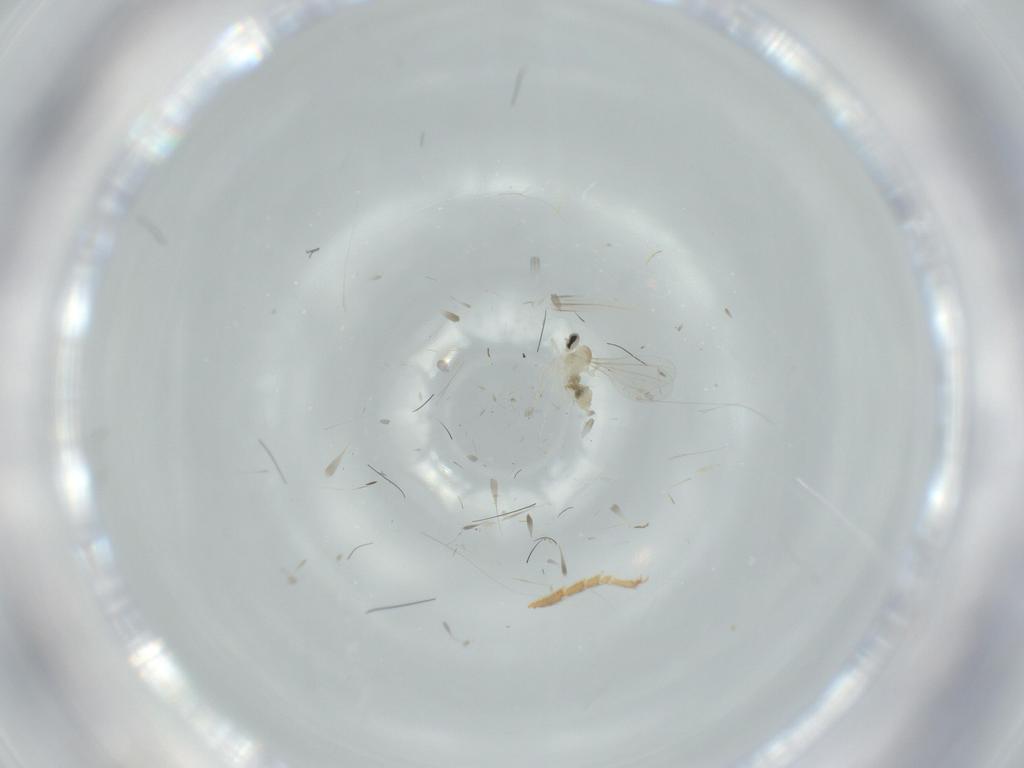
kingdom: Animalia
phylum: Arthropoda
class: Insecta
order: Diptera
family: Cecidomyiidae
